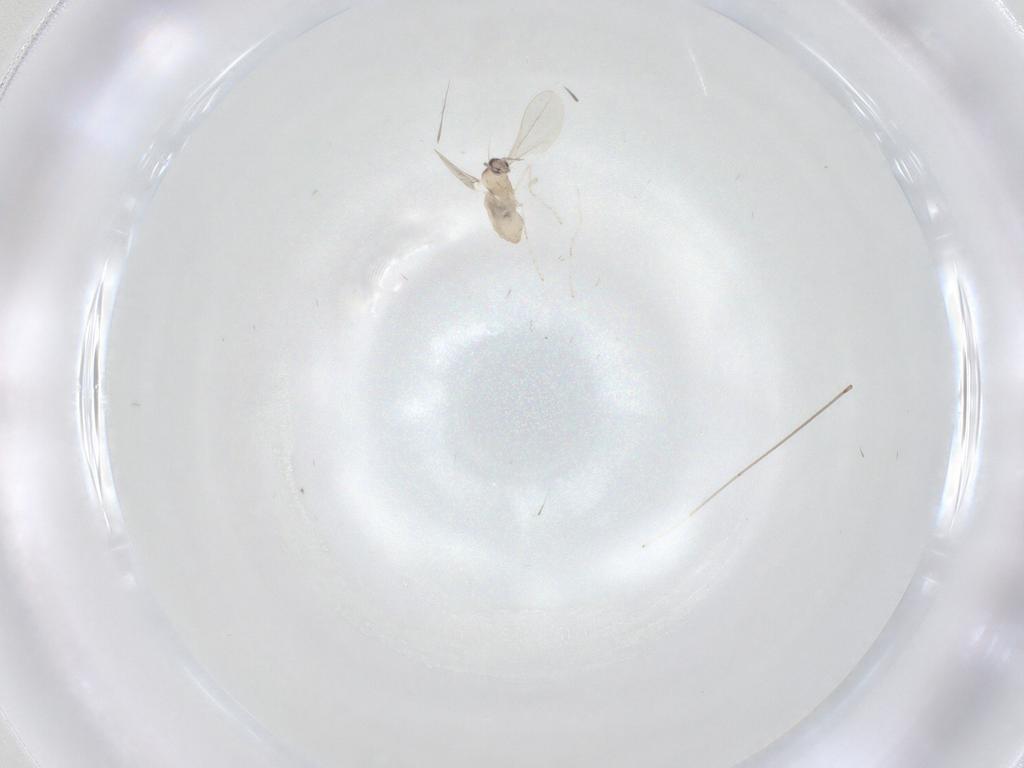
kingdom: Animalia
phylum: Arthropoda
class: Insecta
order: Diptera
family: Cecidomyiidae
